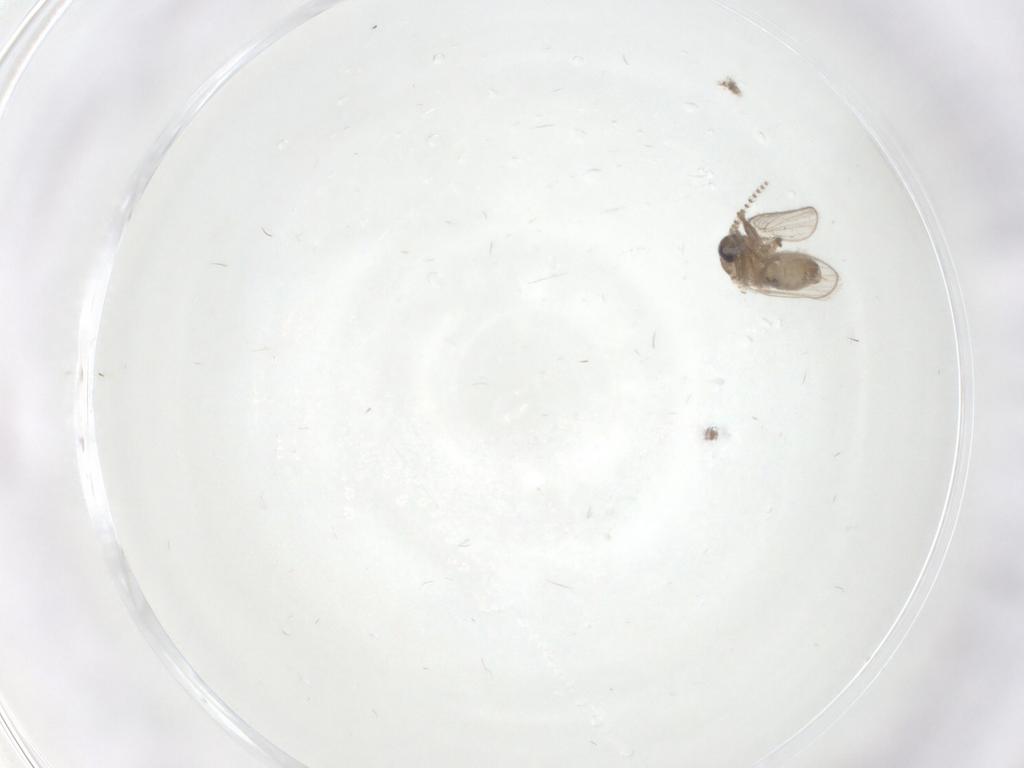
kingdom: Animalia
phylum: Arthropoda
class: Insecta
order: Diptera
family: Psychodidae
